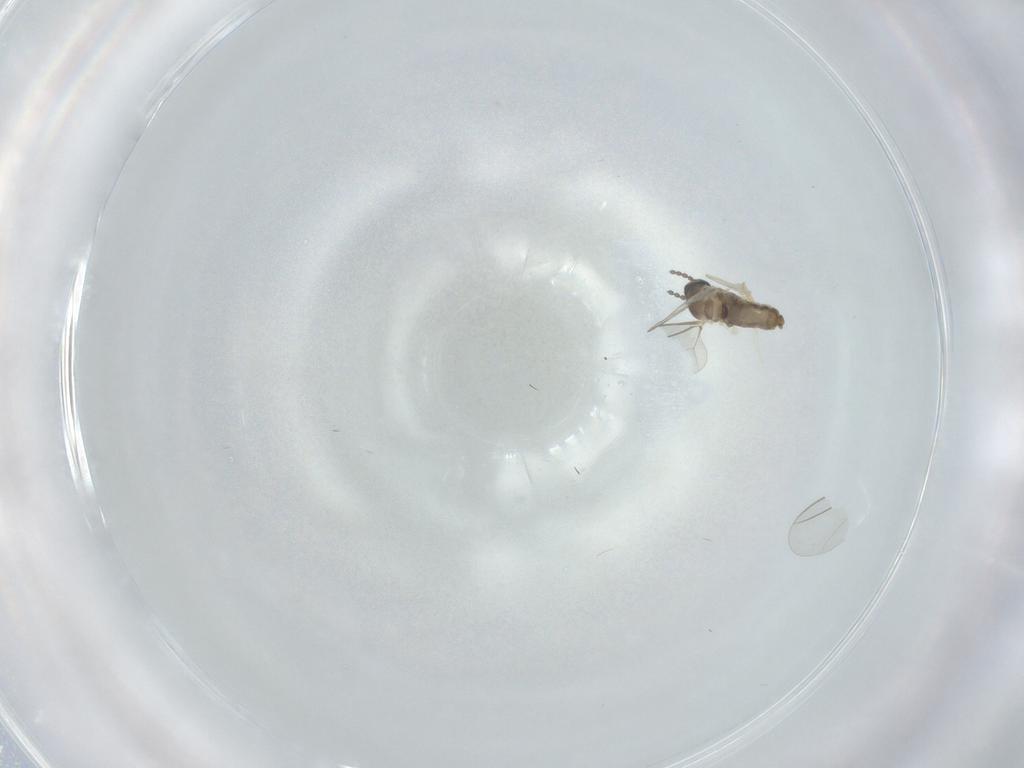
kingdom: Animalia
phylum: Arthropoda
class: Insecta
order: Diptera
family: Cecidomyiidae
